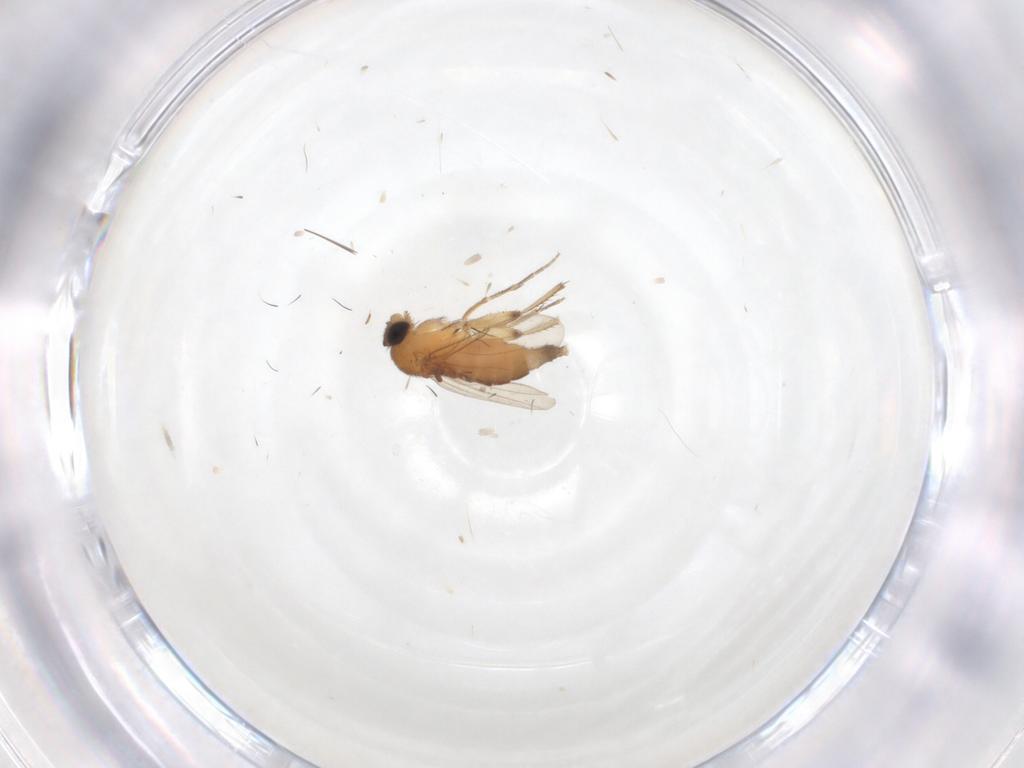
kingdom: Animalia
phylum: Arthropoda
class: Insecta
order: Diptera
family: Phoridae
